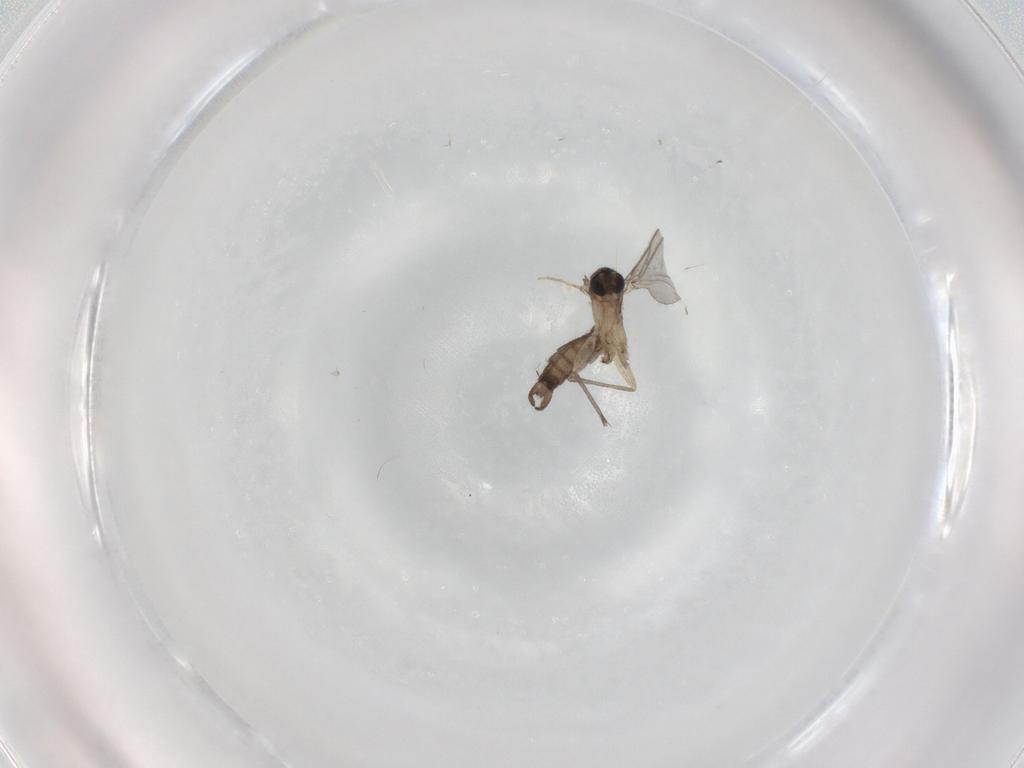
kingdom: Animalia
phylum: Arthropoda
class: Insecta
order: Diptera
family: Sciaridae
